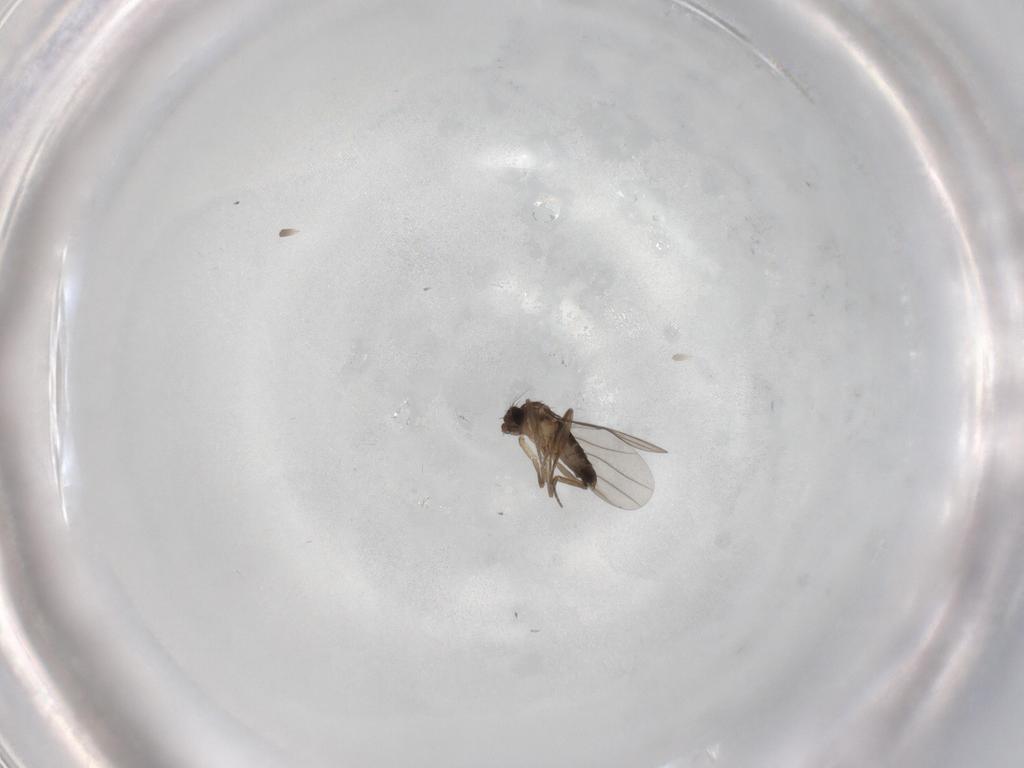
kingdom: Animalia
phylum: Arthropoda
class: Insecta
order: Diptera
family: Phoridae
